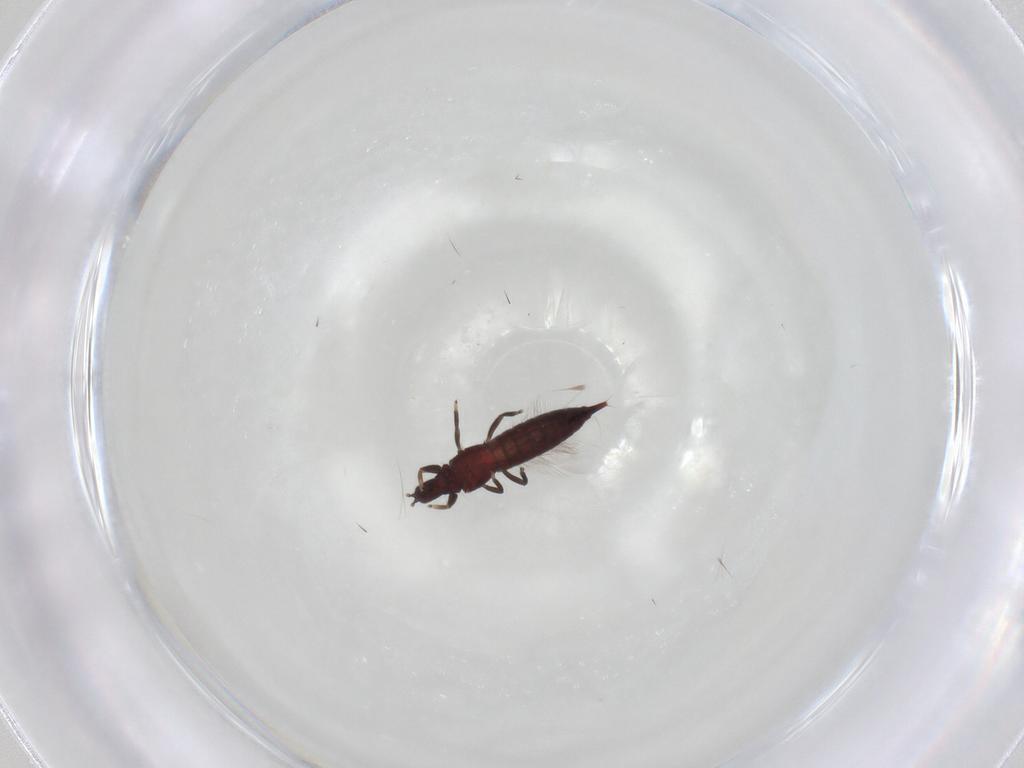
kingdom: Animalia
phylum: Arthropoda
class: Insecta
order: Thysanoptera
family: Phlaeothripidae
